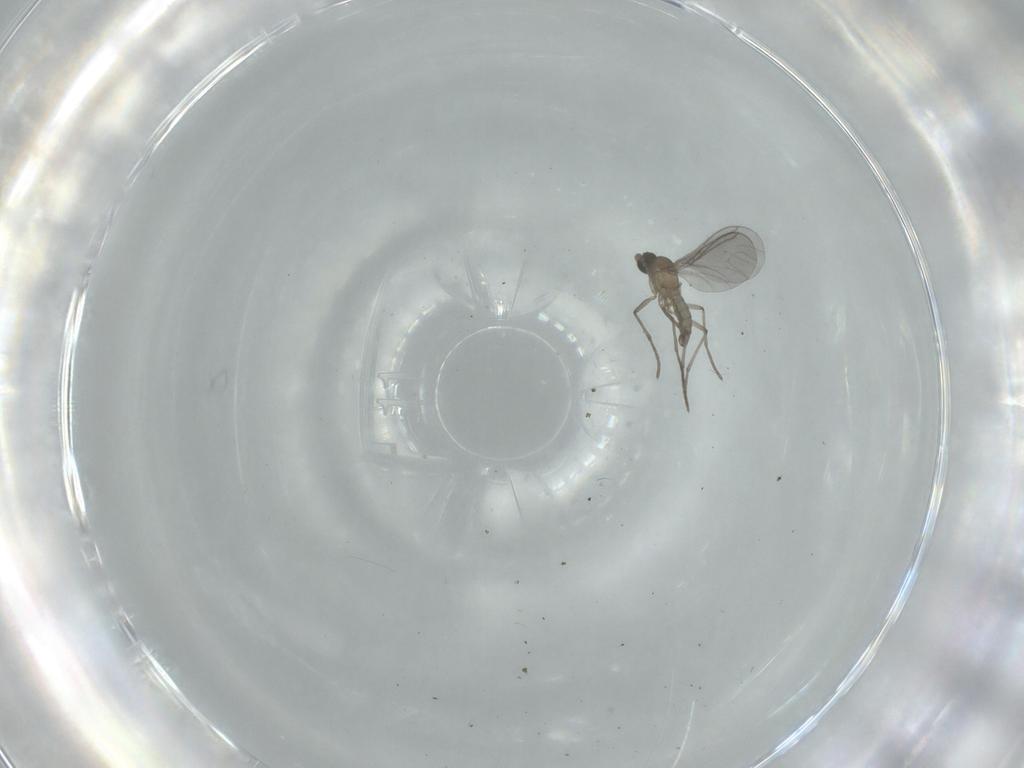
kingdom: Animalia
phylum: Arthropoda
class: Insecta
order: Diptera
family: Sciaridae
